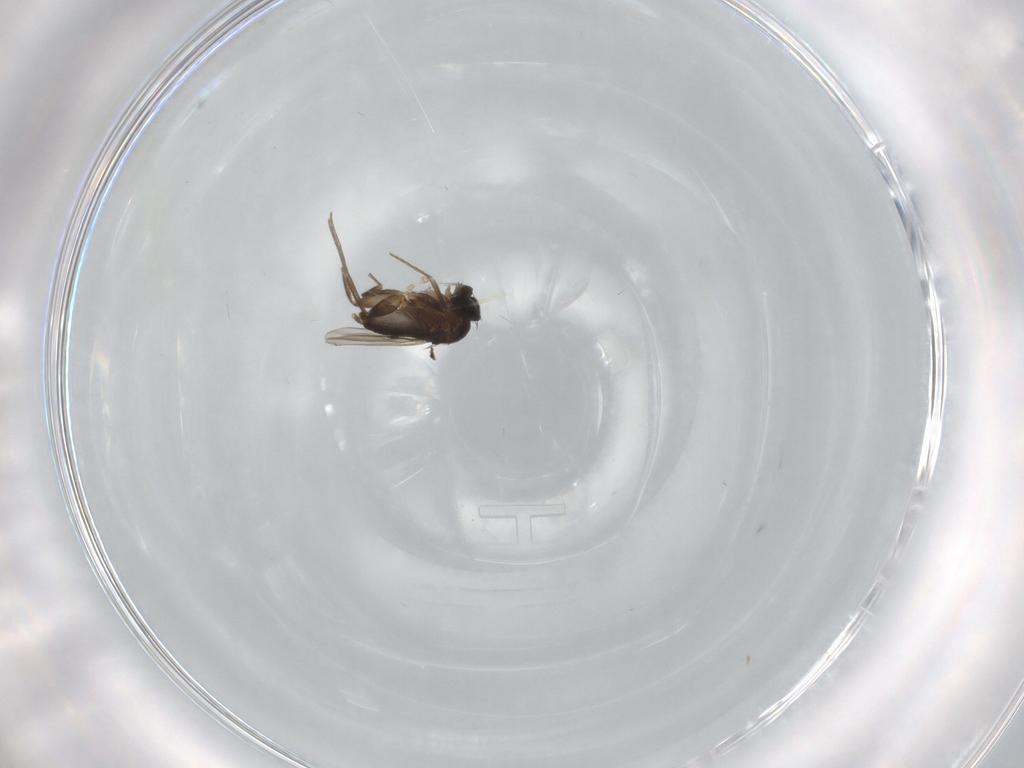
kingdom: Animalia
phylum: Arthropoda
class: Insecta
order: Diptera
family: Phoridae
